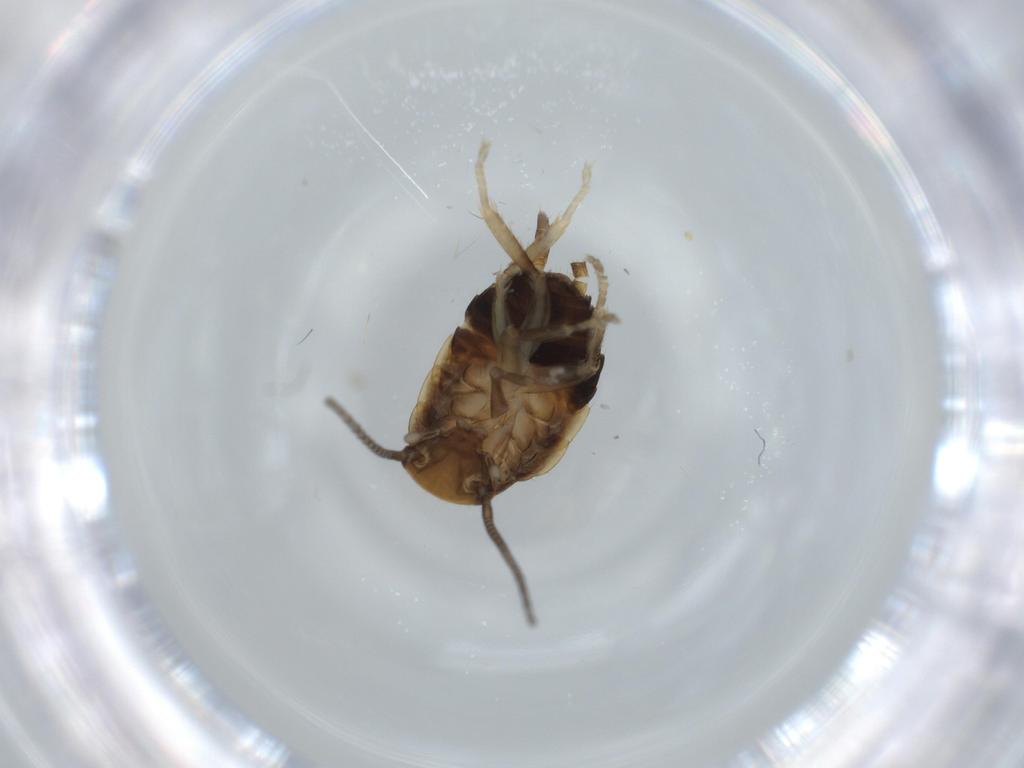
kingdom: Animalia
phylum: Arthropoda
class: Insecta
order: Blattodea
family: Ectobiidae
